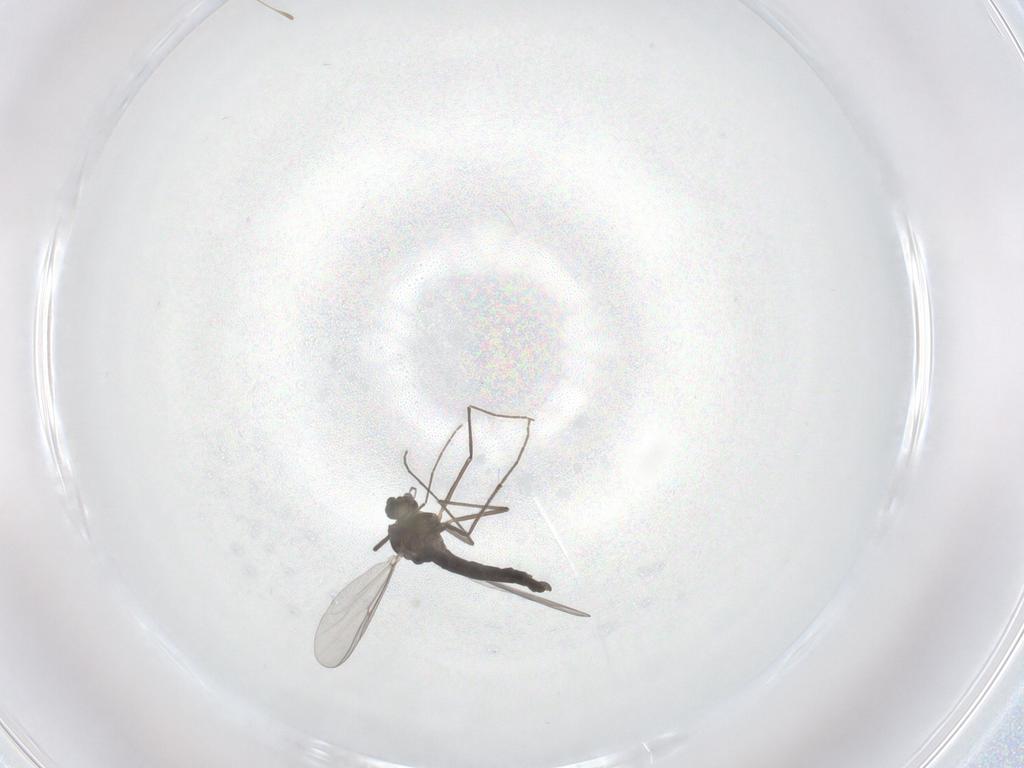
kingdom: Animalia
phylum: Arthropoda
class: Insecta
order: Diptera
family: Chironomidae
